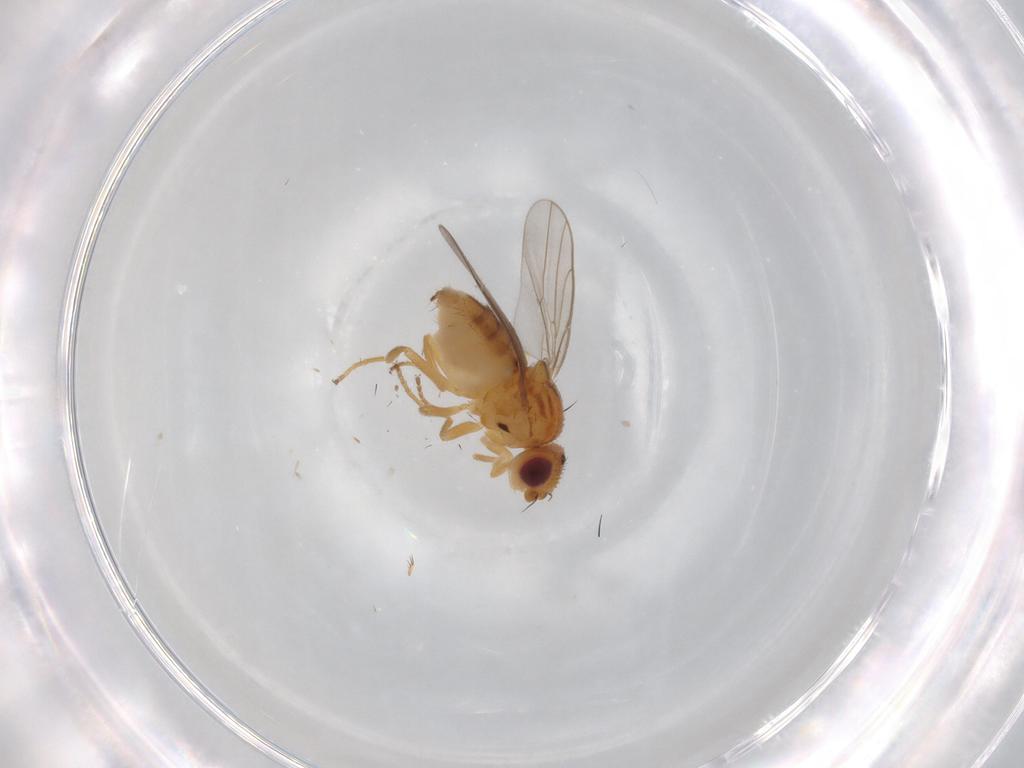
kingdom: Animalia
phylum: Arthropoda
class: Insecta
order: Diptera
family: Chloropidae
